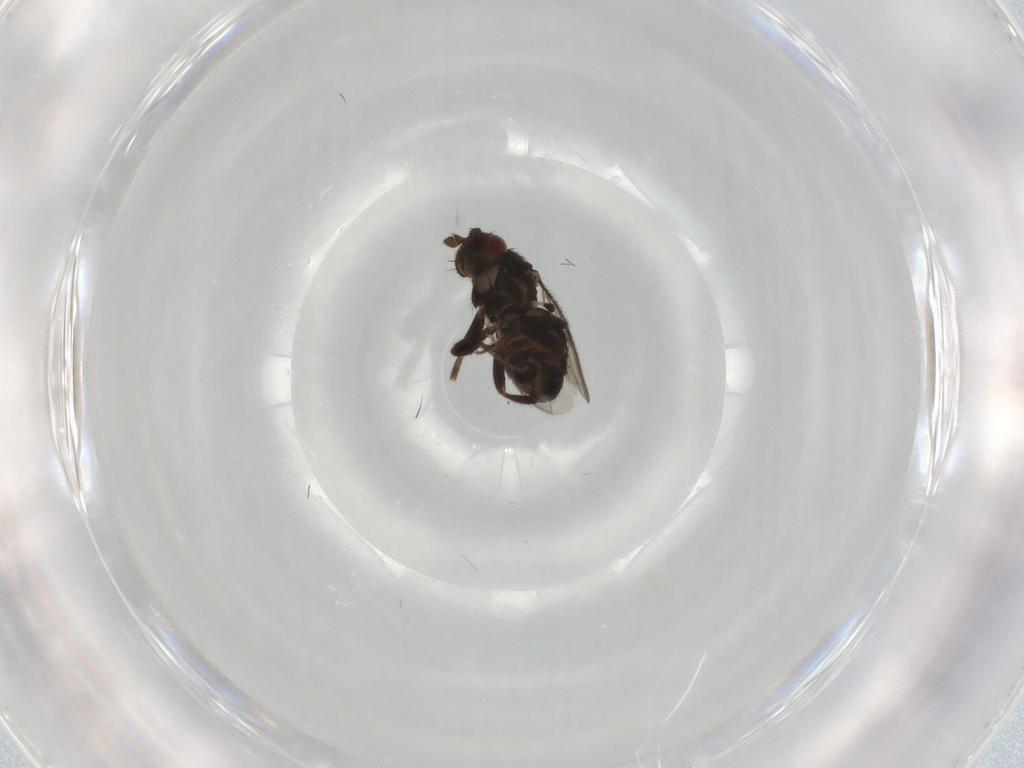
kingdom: Animalia
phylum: Arthropoda
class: Insecta
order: Diptera
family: Sphaeroceridae
